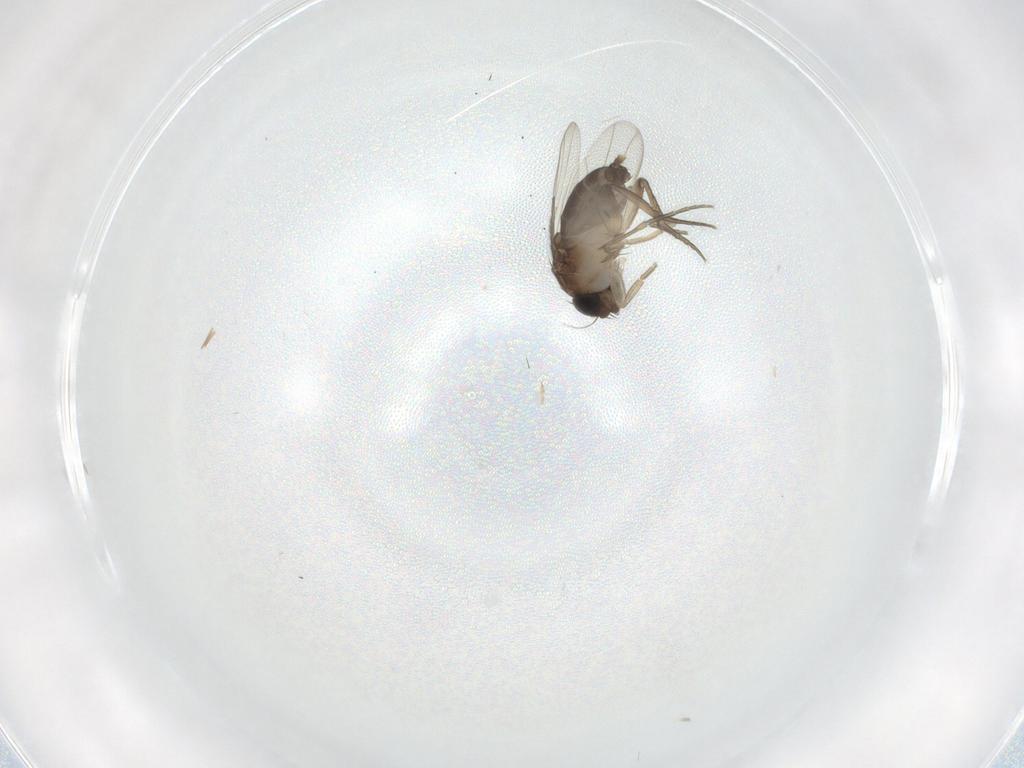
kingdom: Animalia
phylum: Arthropoda
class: Insecta
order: Diptera
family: Phoridae
